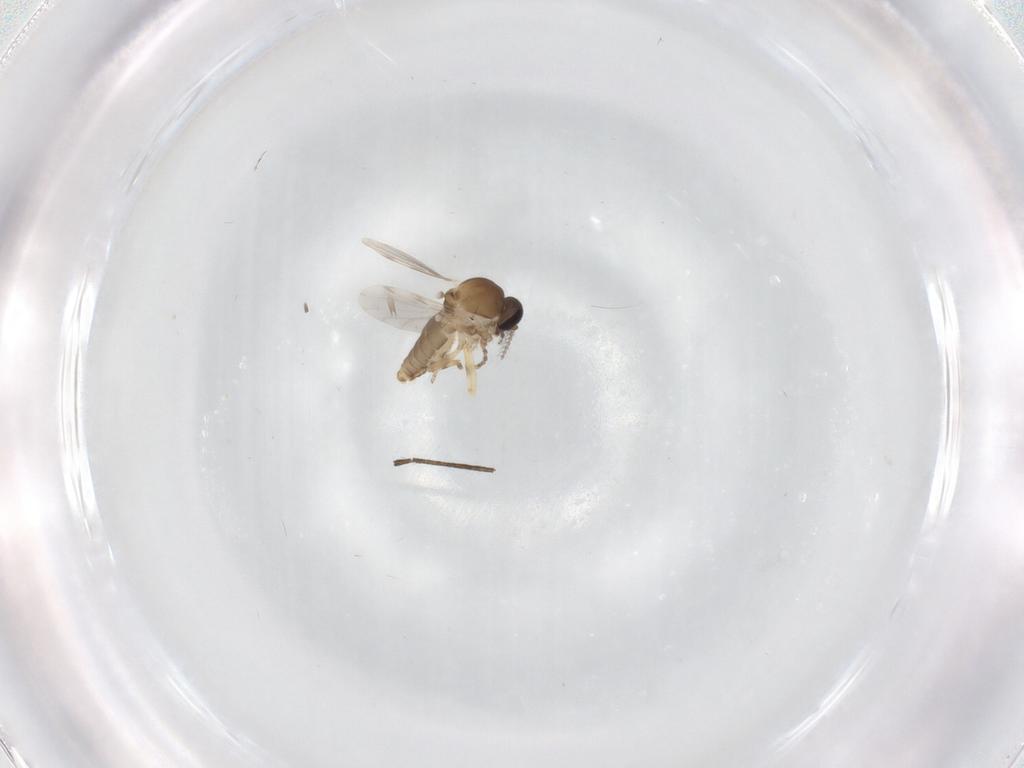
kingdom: Animalia
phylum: Arthropoda
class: Insecta
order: Diptera
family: Ceratopogonidae
